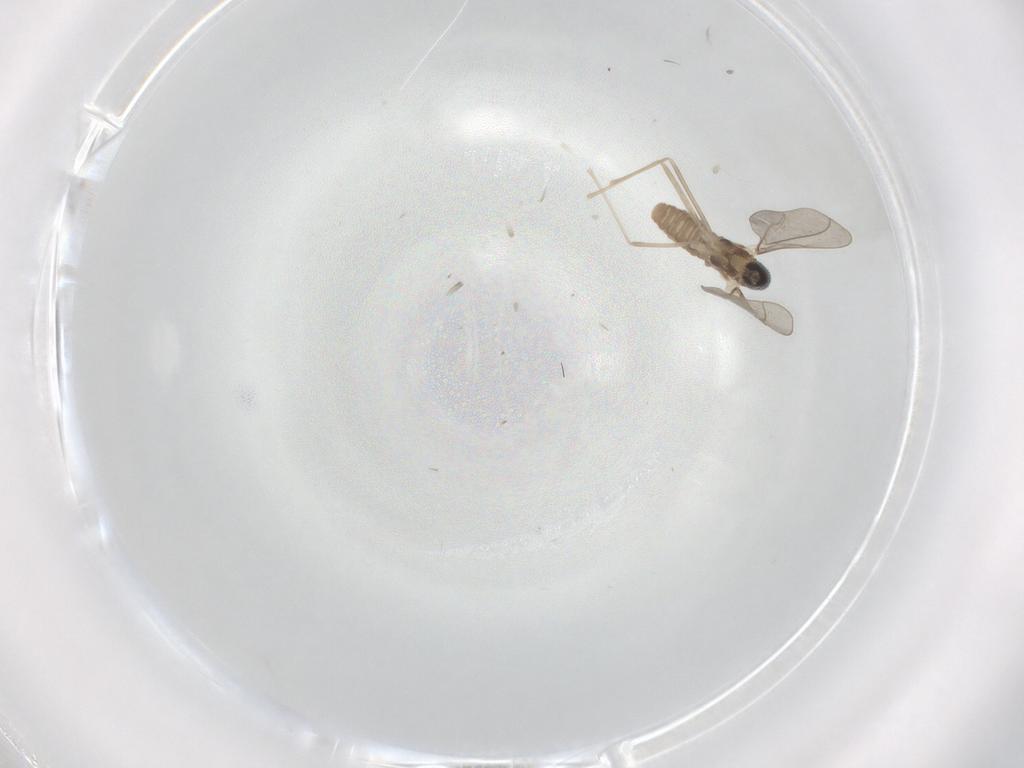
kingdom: Animalia
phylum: Arthropoda
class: Insecta
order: Diptera
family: Cecidomyiidae
